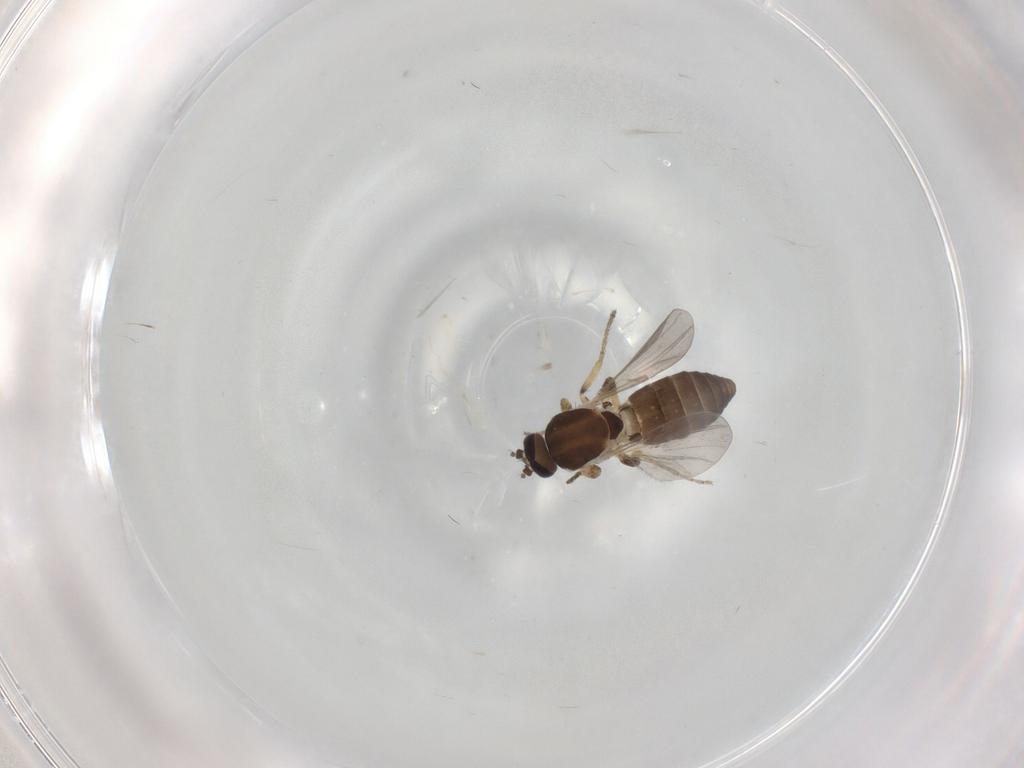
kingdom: Animalia
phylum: Arthropoda
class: Insecta
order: Diptera
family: Ceratopogonidae
